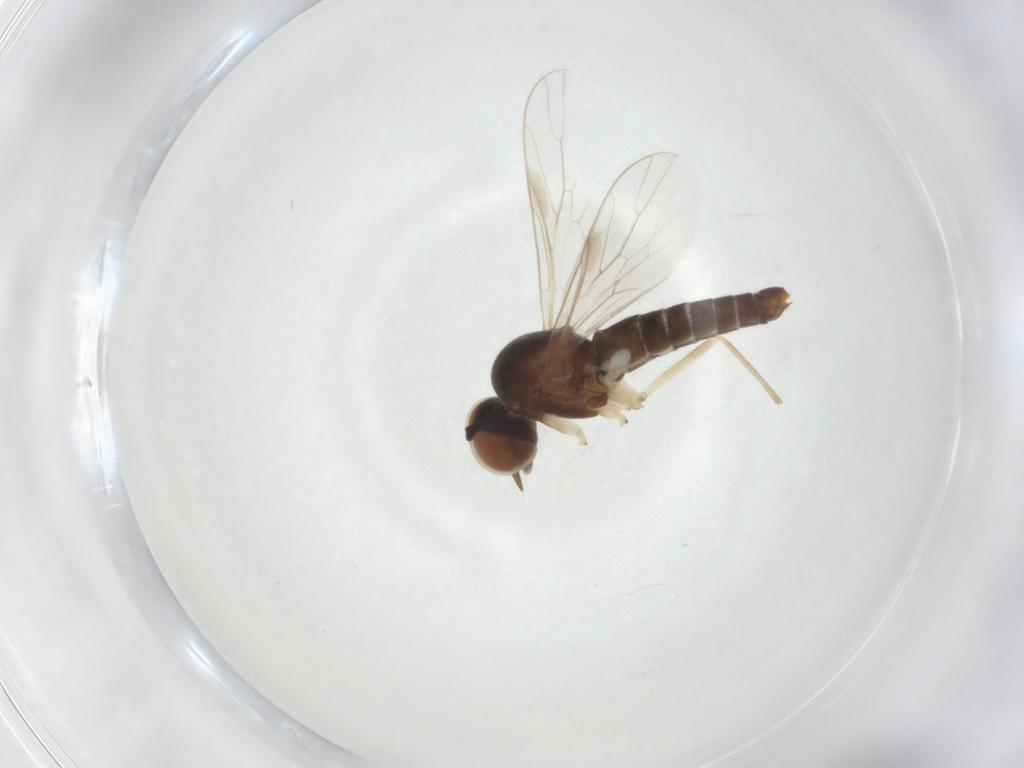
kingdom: Animalia
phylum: Arthropoda
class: Insecta
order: Diptera
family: Scenopinidae
